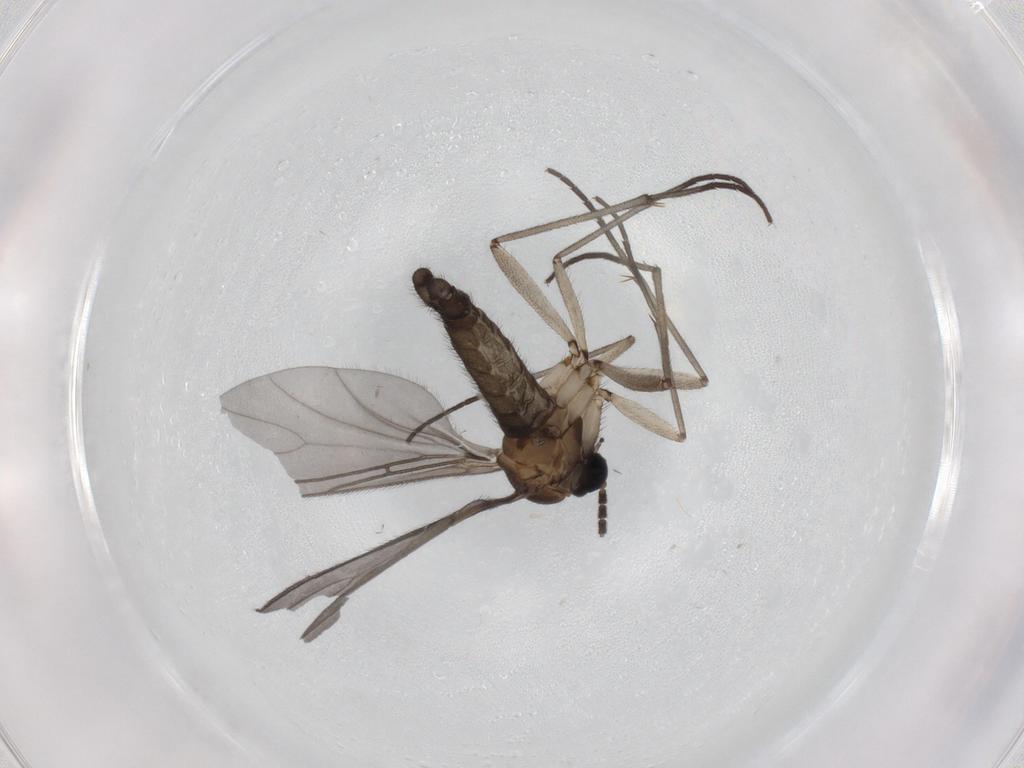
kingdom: Animalia
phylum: Arthropoda
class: Insecta
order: Diptera
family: Sciaridae
